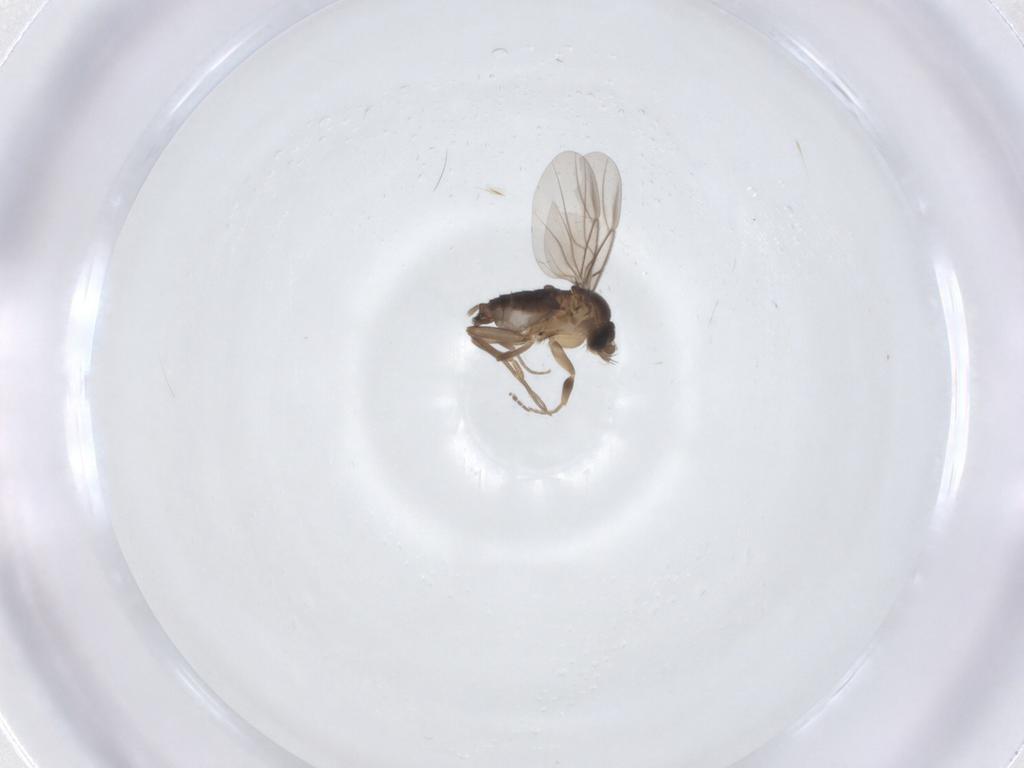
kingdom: Animalia
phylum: Arthropoda
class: Insecta
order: Diptera
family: Phoridae
